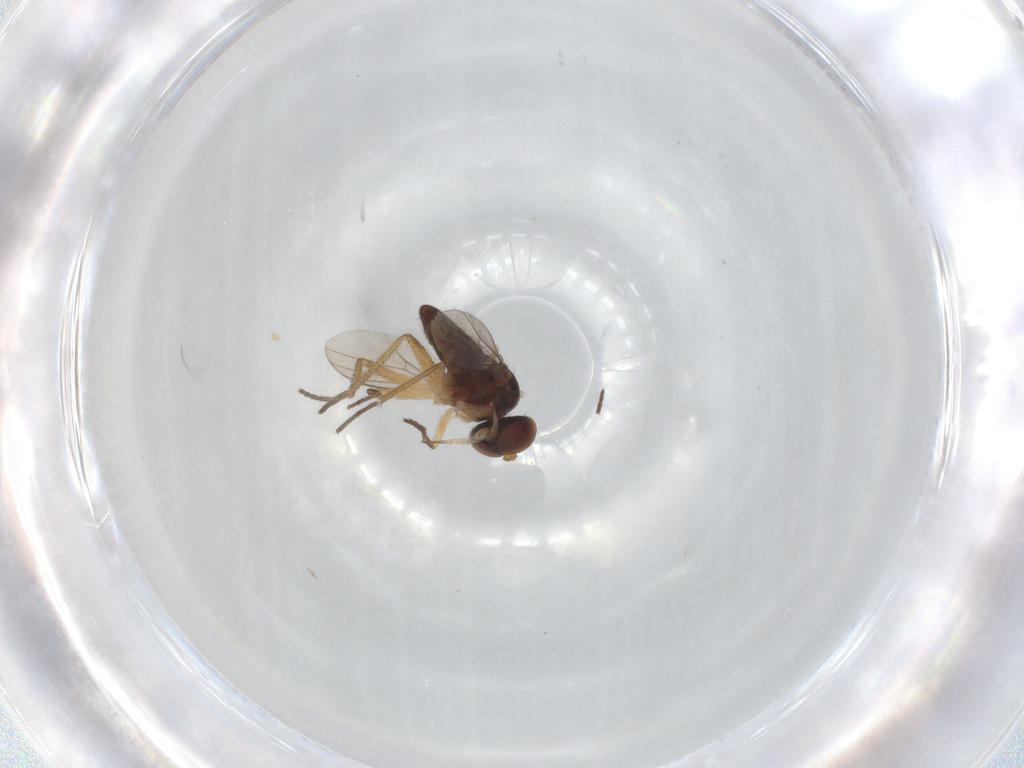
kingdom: Animalia
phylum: Arthropoda
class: Insecta
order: Diptera
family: Dolichopodidae
